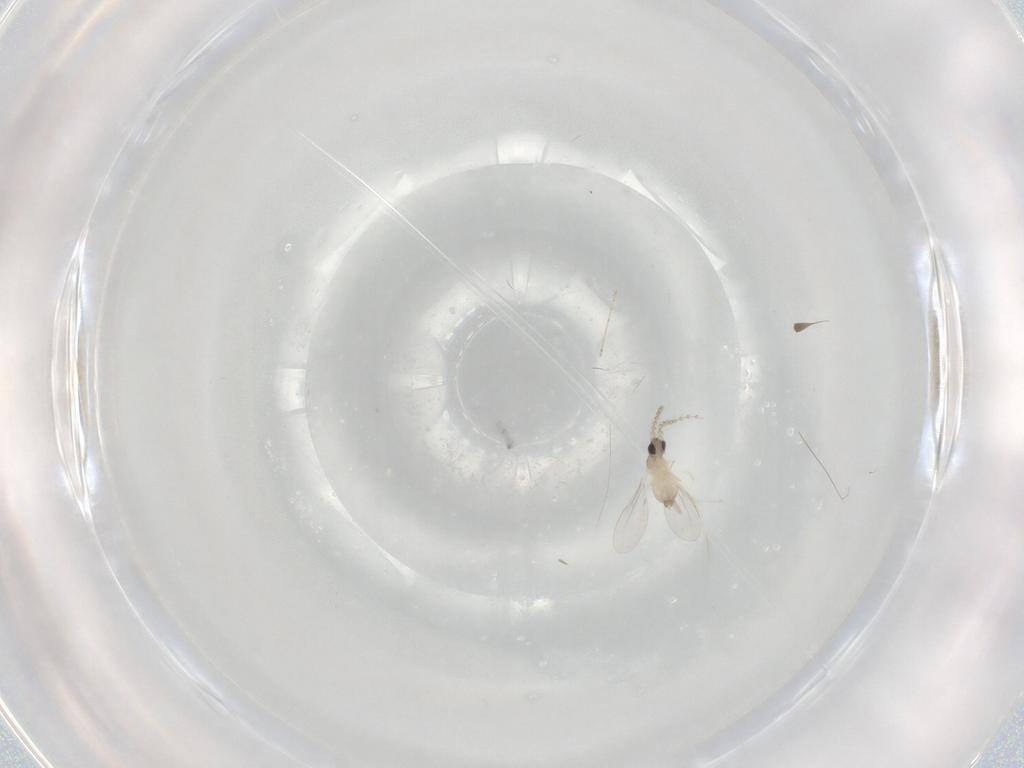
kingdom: Animalia
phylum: Arthropoda
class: Insecta
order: Diptera
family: Cecidomyiidae
